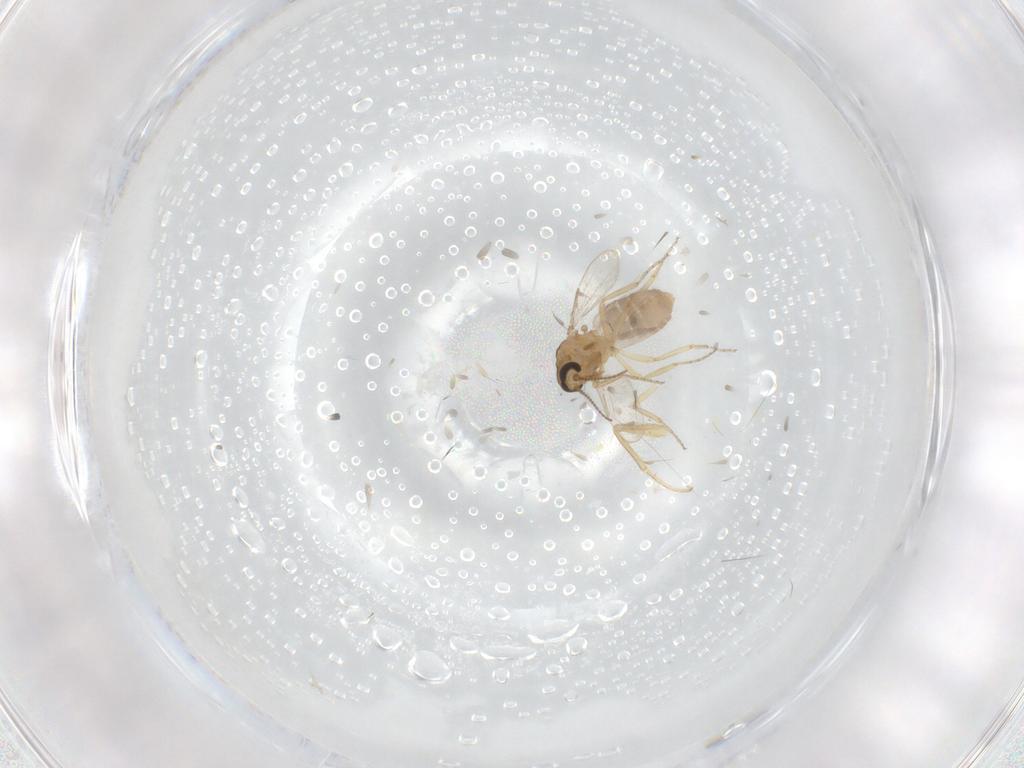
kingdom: Animalia
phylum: Arthropoda
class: Insecta
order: Diptera
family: Dolichopodidae
